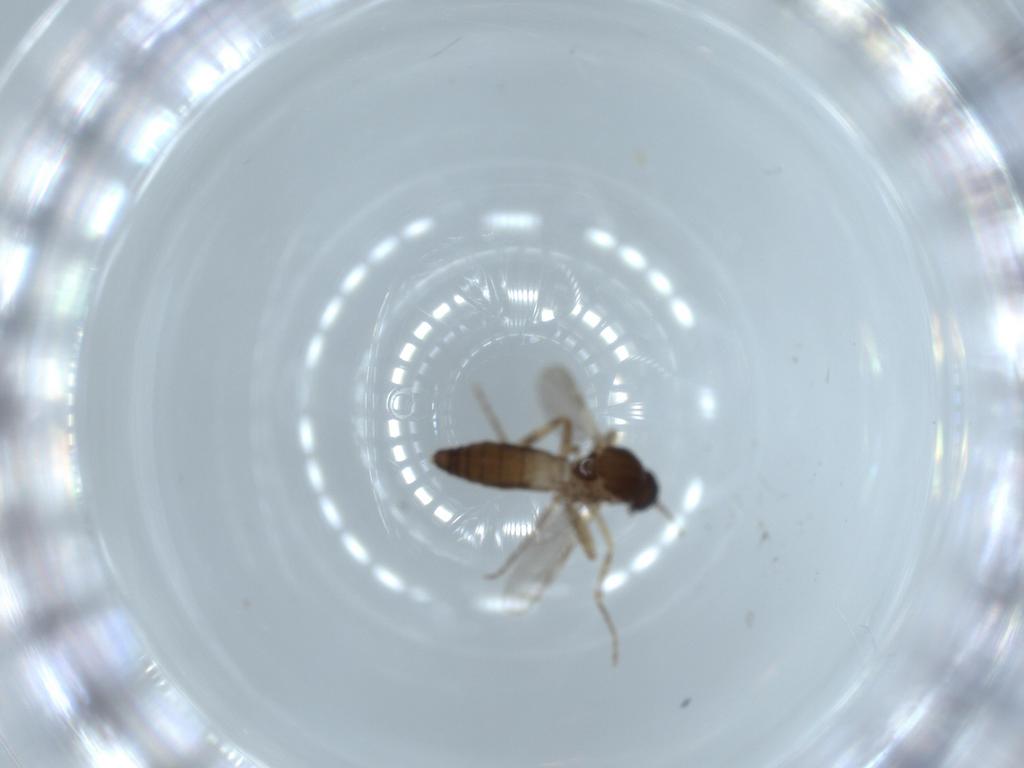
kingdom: Animalia
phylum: Arthropoda
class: Insecta
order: Diptera
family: Ceratopogonidae
